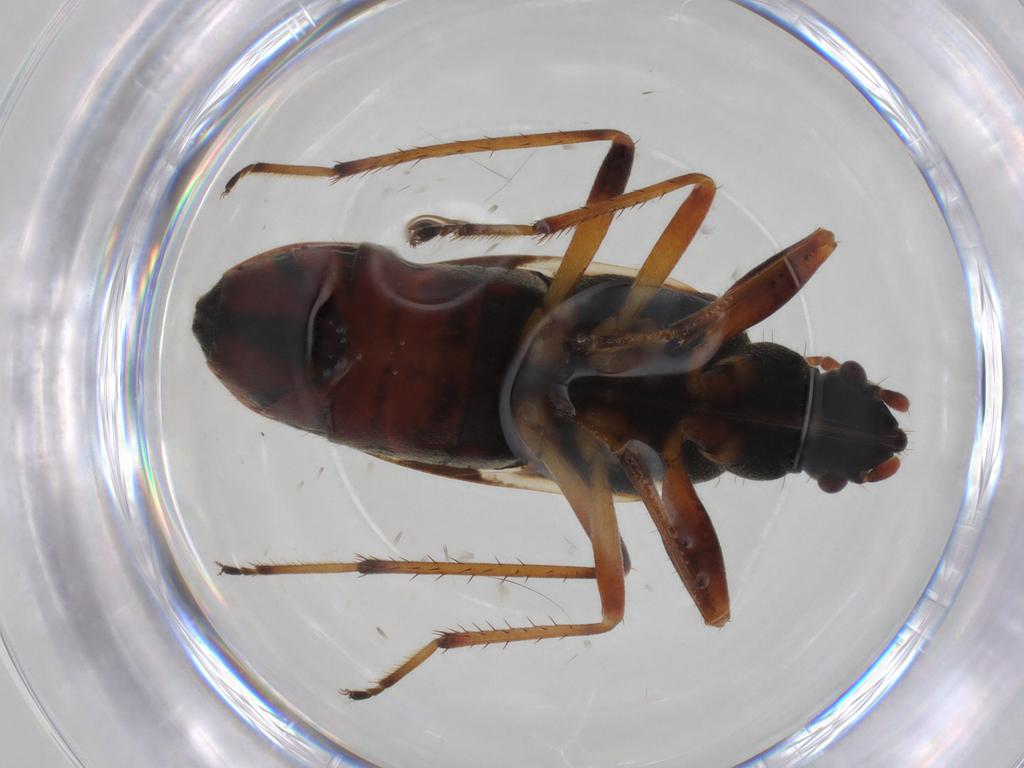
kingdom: Animalia
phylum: Arthropoda
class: Insecta
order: Hemiptera
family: Rhyparochromidae
